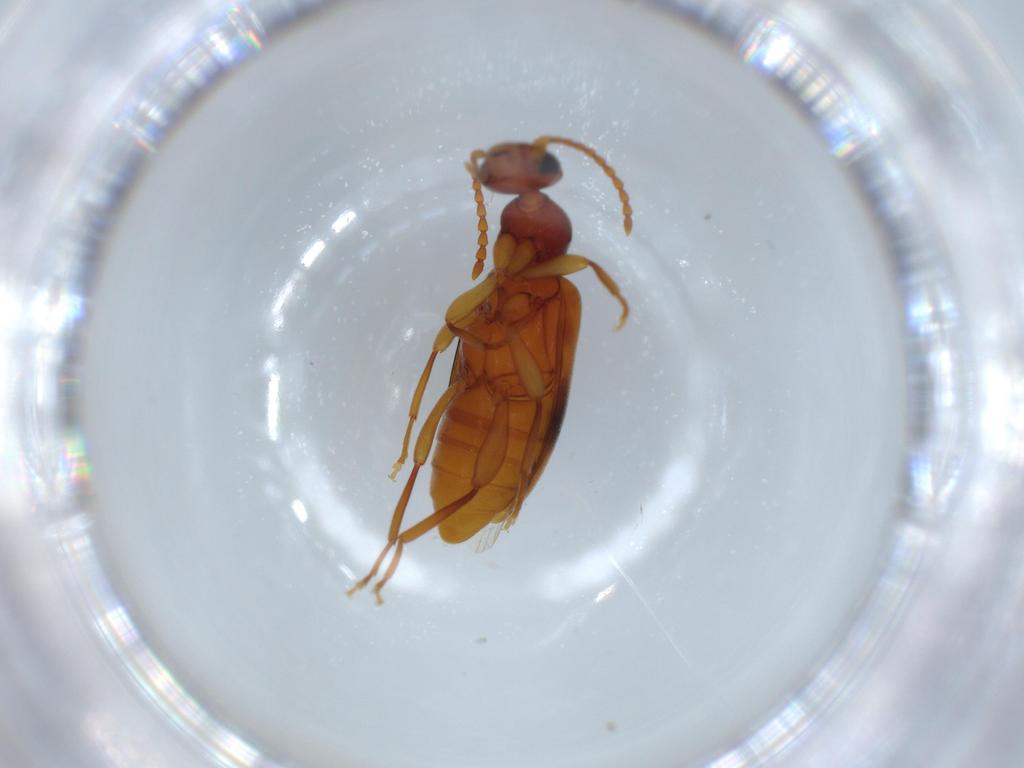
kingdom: Animalia
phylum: Arthropoda
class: Insecta
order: Coleoptera
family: Anthicidae
